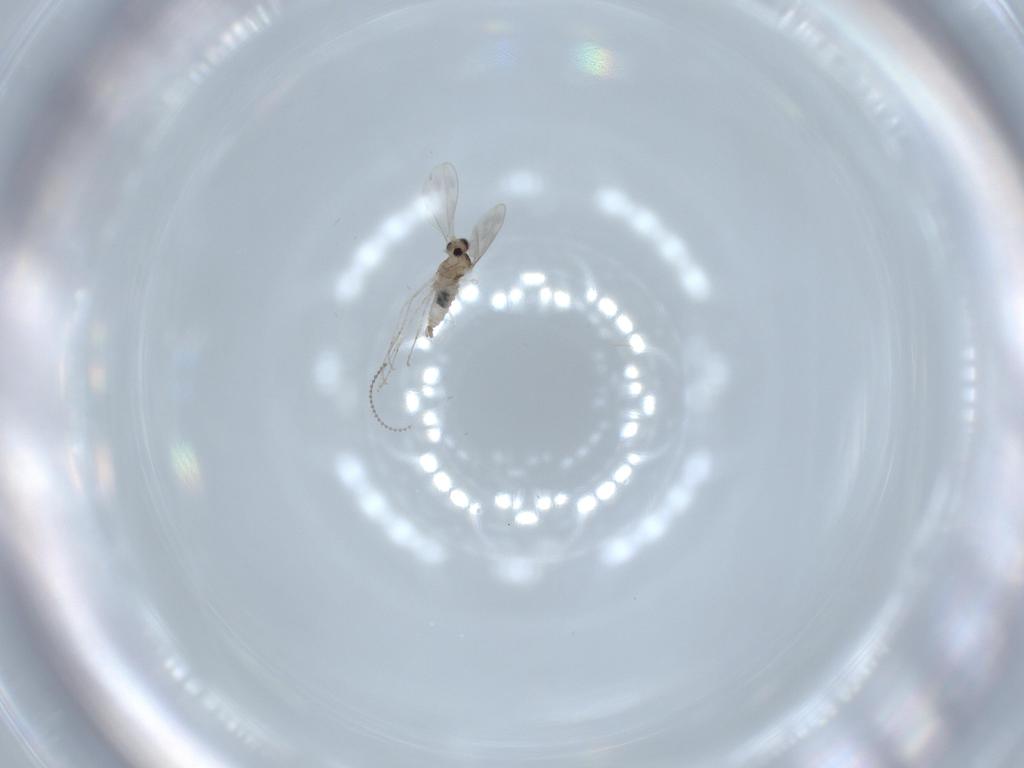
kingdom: Animalia
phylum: Arthropoda
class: Insecta
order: Diptera
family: Cecidomyiidae
